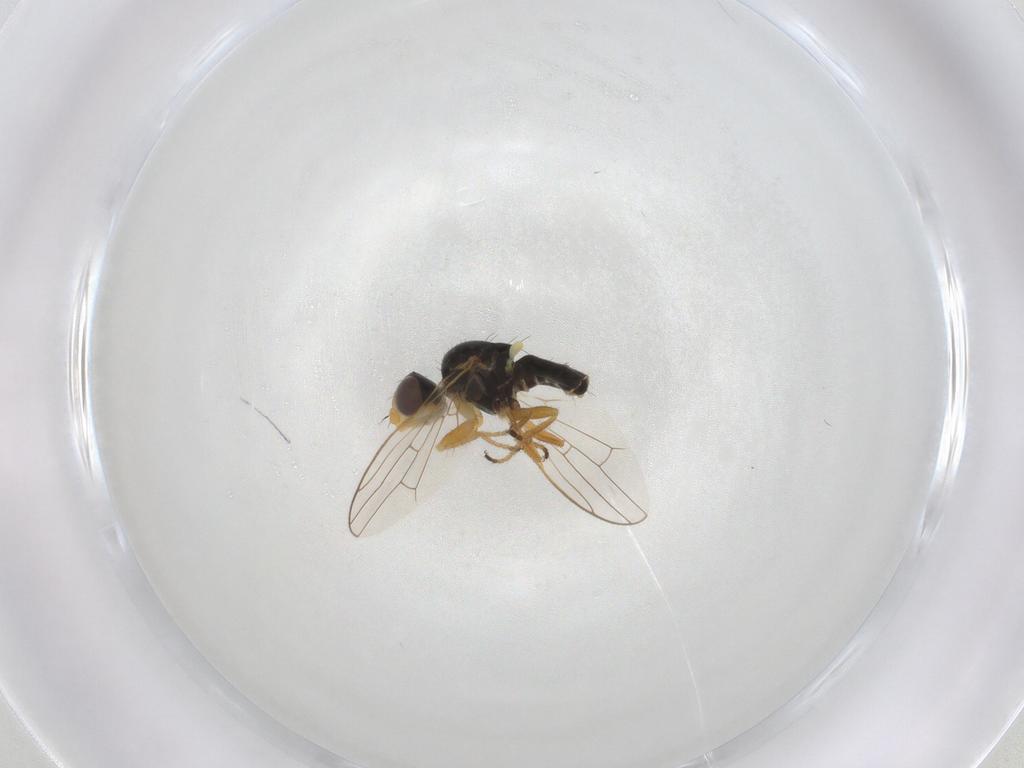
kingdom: Animalia
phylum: Arthropoda
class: Insecta
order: Diptera
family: Tephritidae
